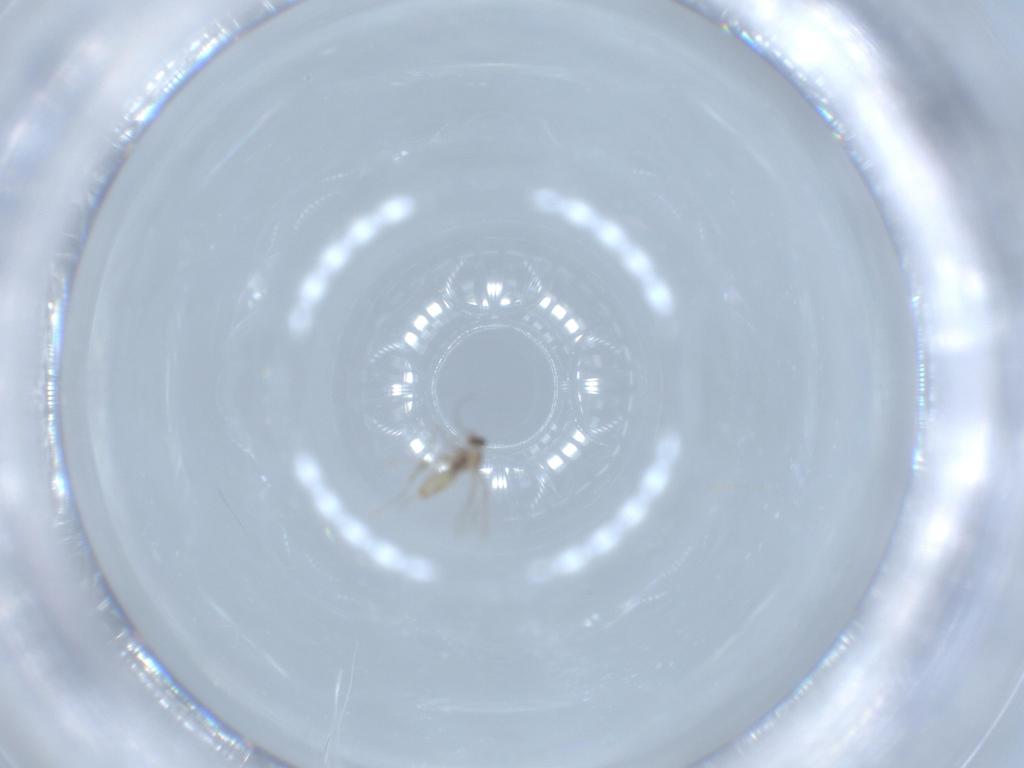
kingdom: Animalia
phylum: Arthropoda
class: Insecta
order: Diptera
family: Cecidomyiidae
